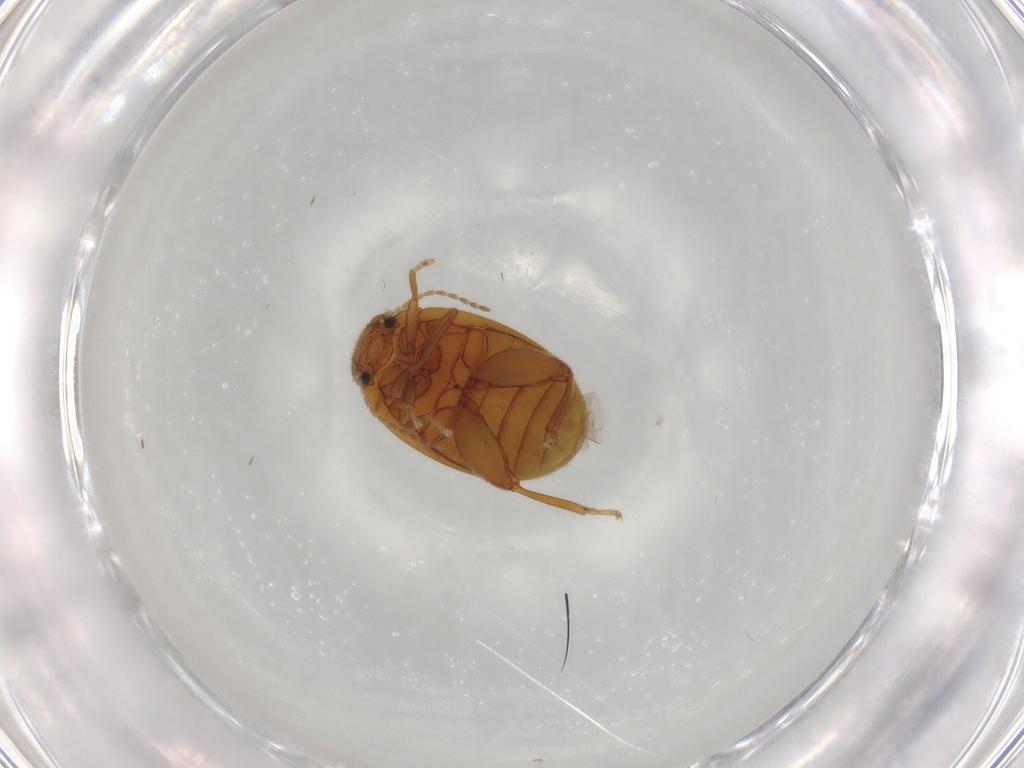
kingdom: Animalia
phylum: Arthropoda
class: Insecta
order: Coleoptera
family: Scirtidae
